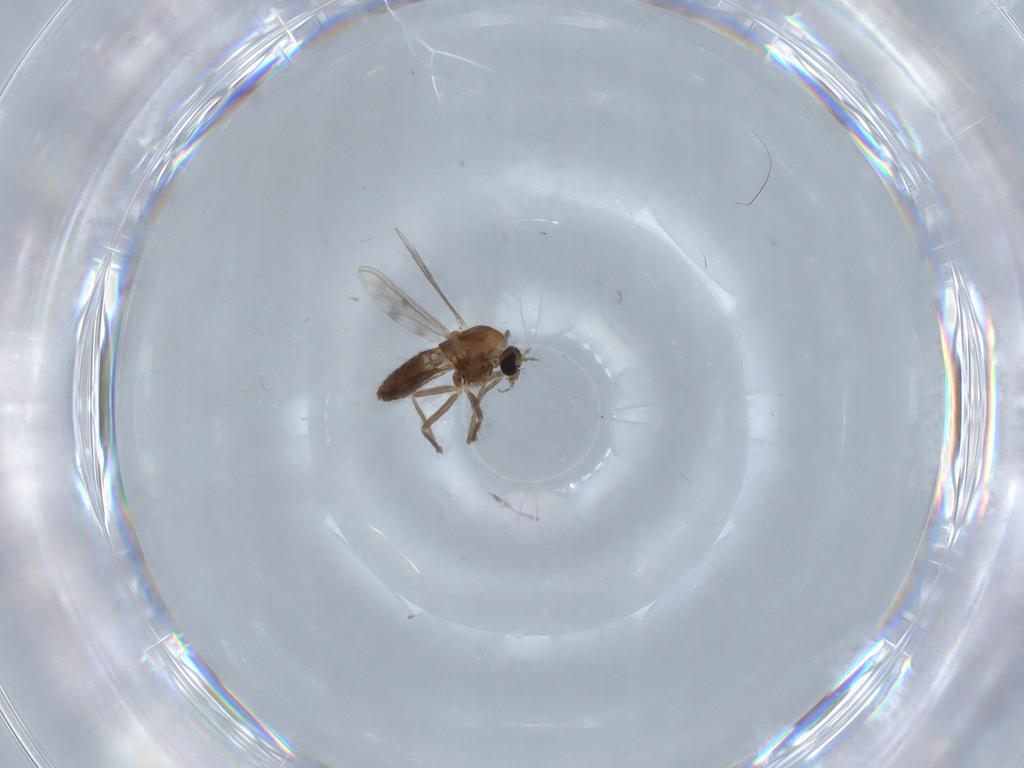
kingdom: Animalia
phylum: Arthropoda
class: Insecta
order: Diptera
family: Chironomidae
